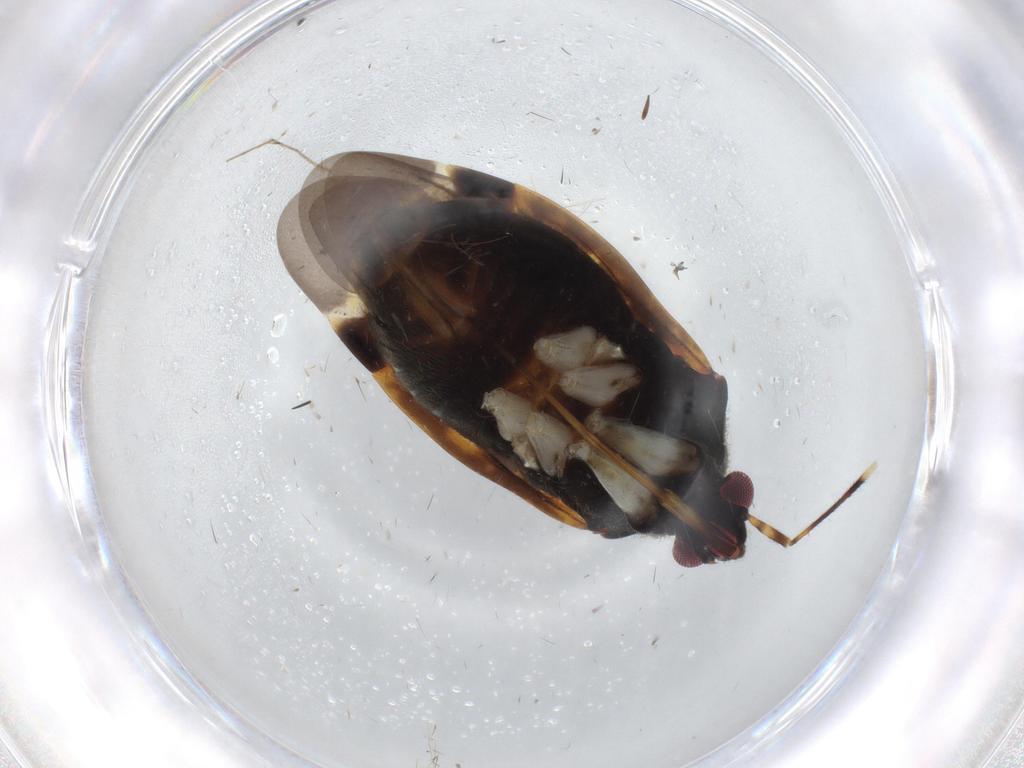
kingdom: Animalia
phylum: Arthropoda
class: Insecta
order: Hemiptera
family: Miridae
